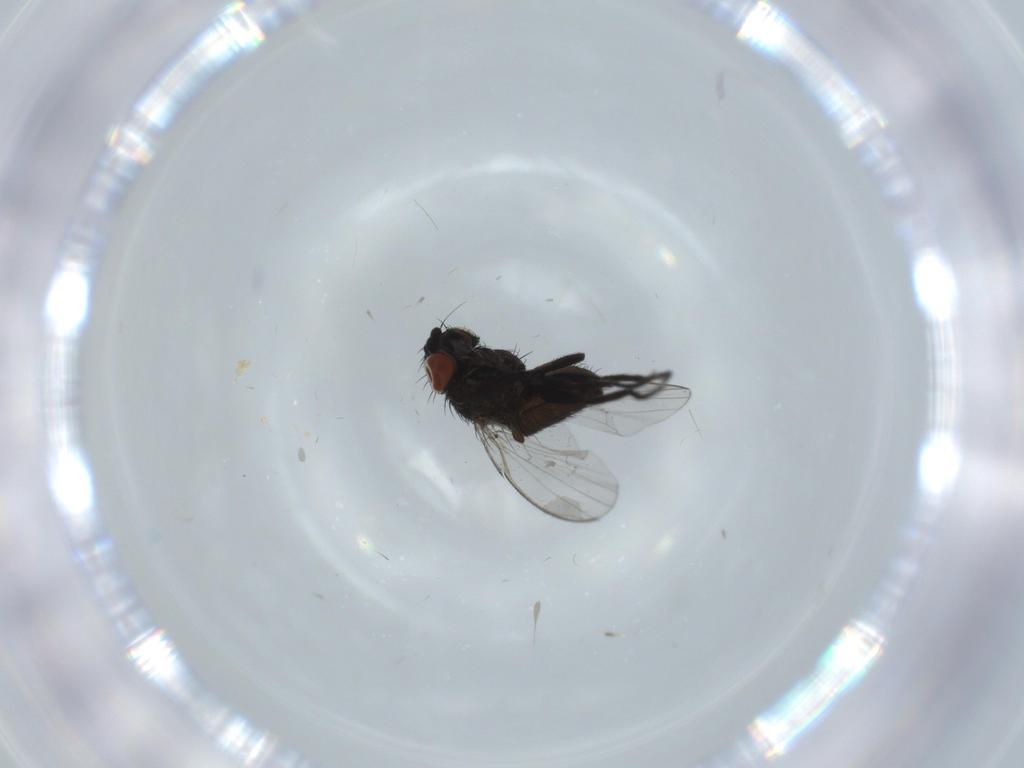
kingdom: Animalia
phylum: Arthropoda
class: Insecta
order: Diptera
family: Milichiidae
